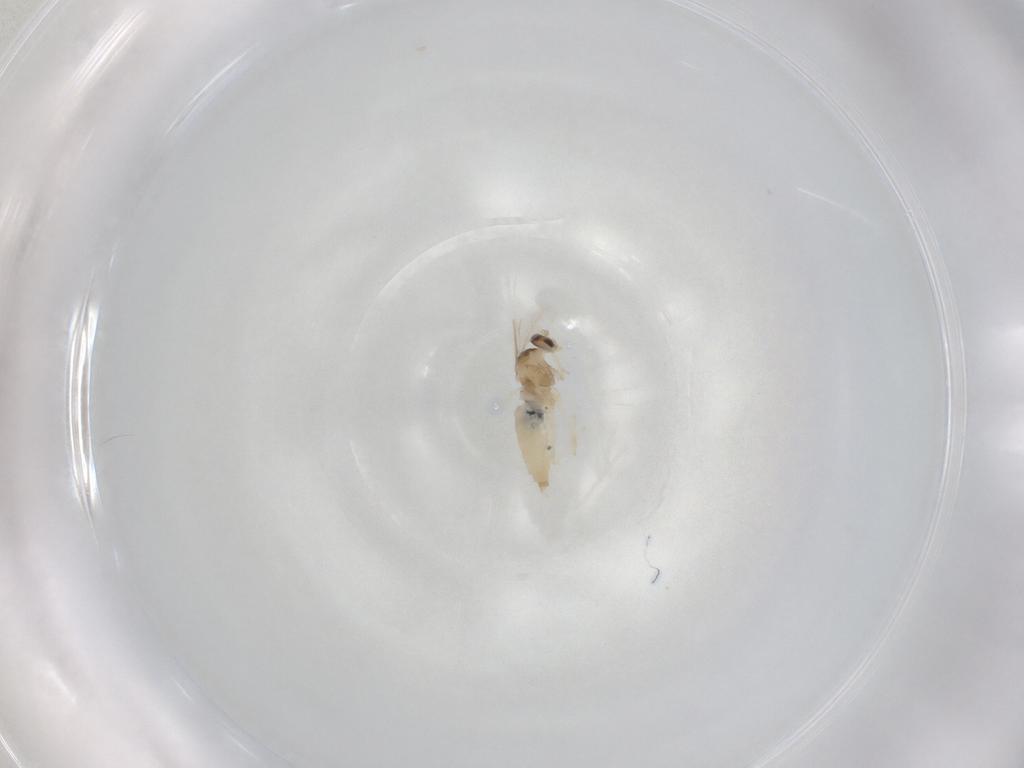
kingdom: Animalia
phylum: Arthropoda
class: Insecta
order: Diptera
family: Cecidomyiidae
